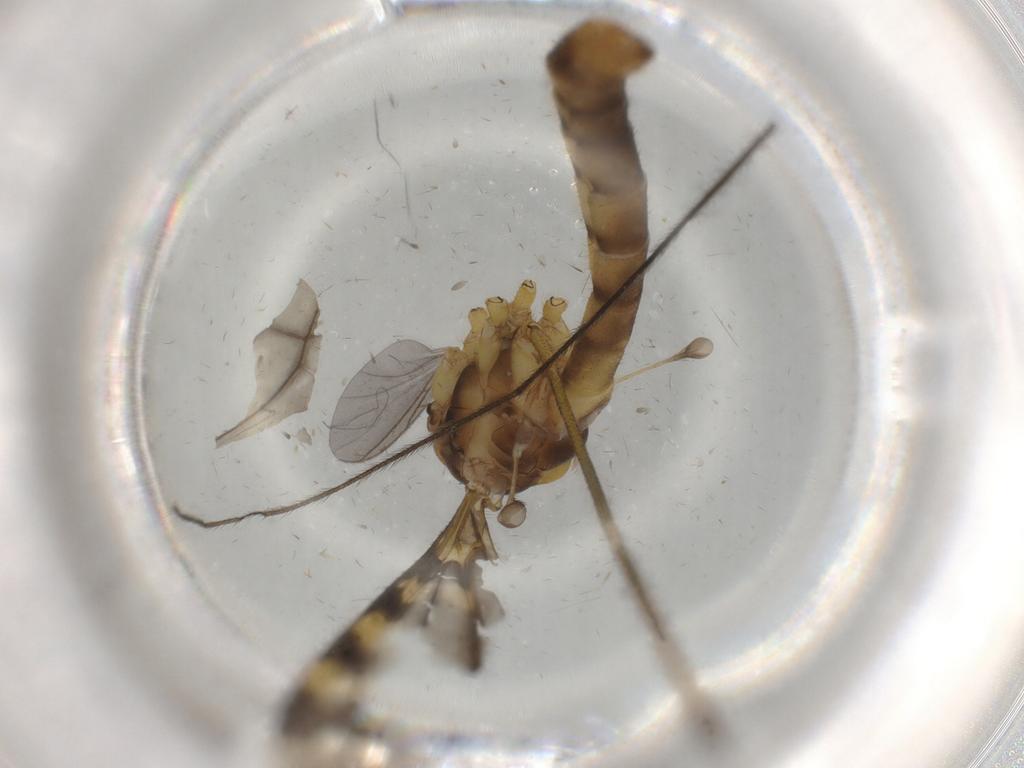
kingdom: Animalia
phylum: Arthropoda
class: Insecta
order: Diptera
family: Sciaridae
